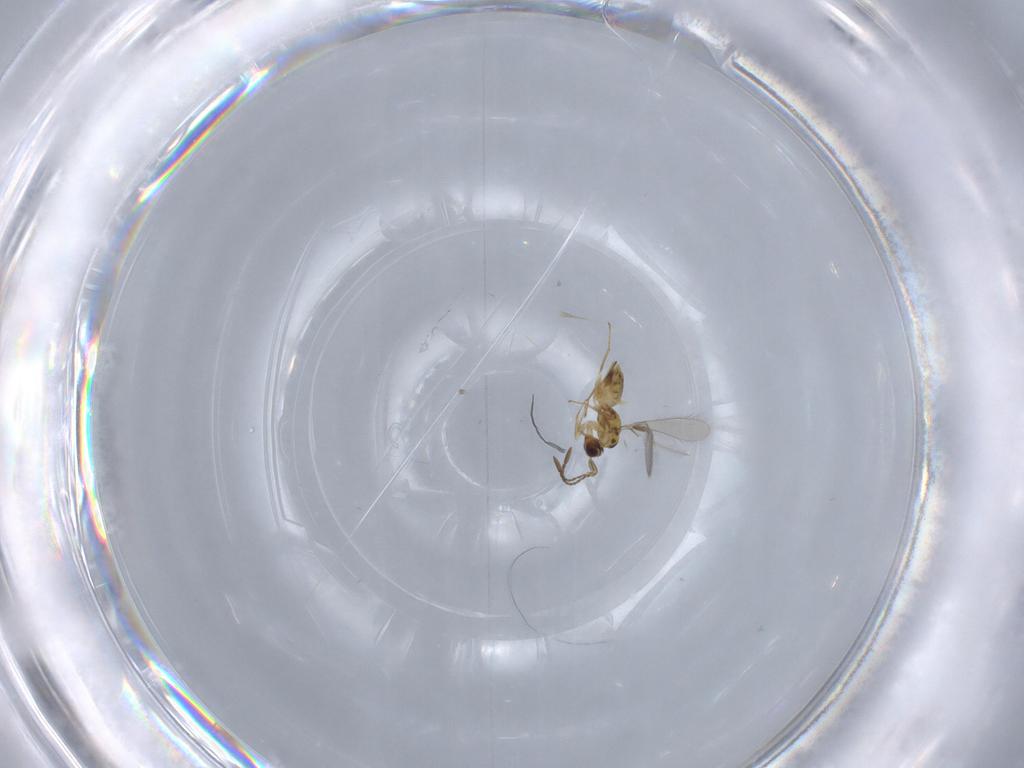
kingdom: Animalia
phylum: Arthropoda
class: Insecta
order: Hymenoptera
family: Mymaridae
